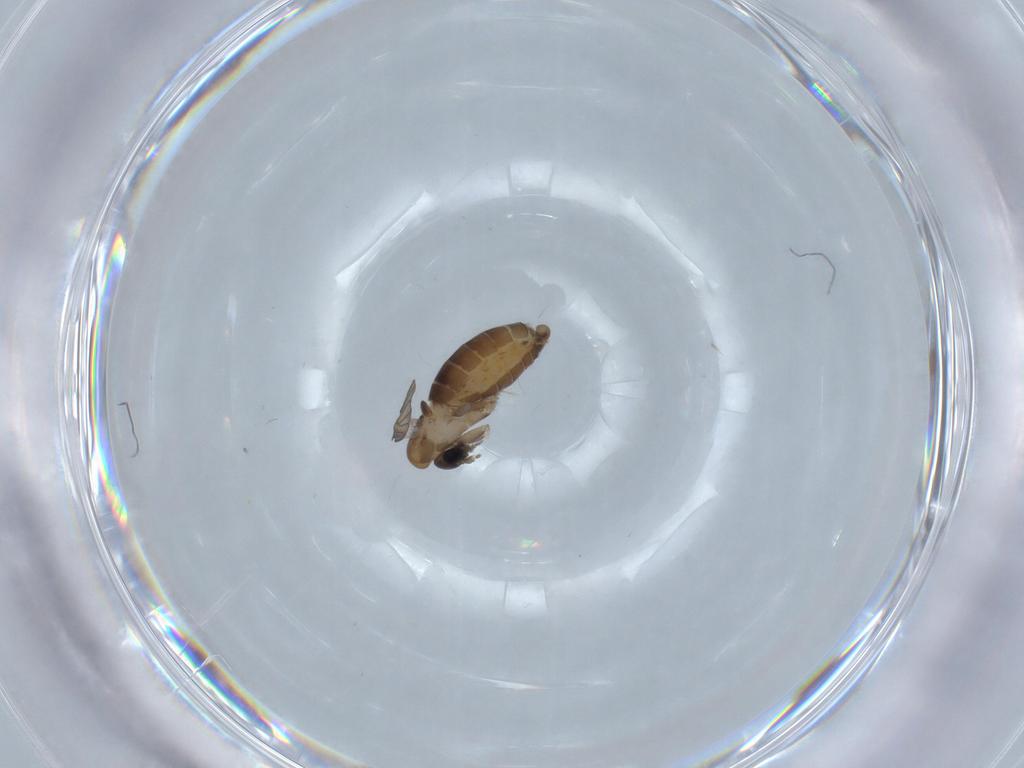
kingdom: Animalia
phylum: Arthropoda
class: Insecta
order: Diptera
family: Psychodidae
